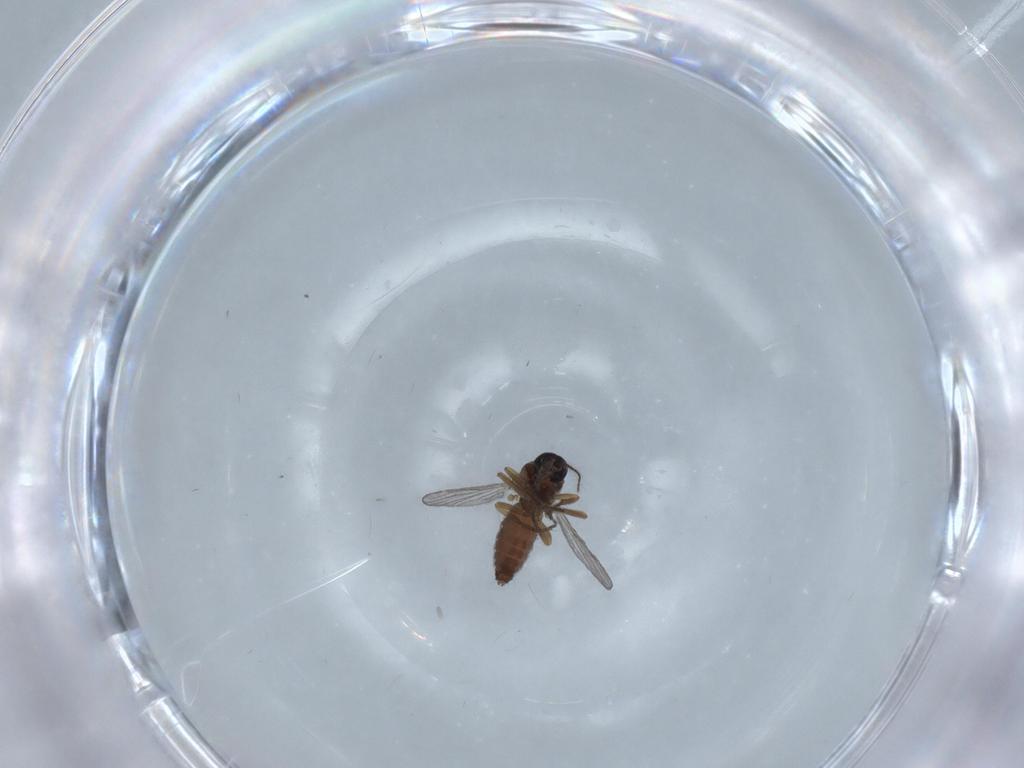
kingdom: Animalia
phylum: Arthropoda
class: Insecta
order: Diptera
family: Ceratopogonidae
